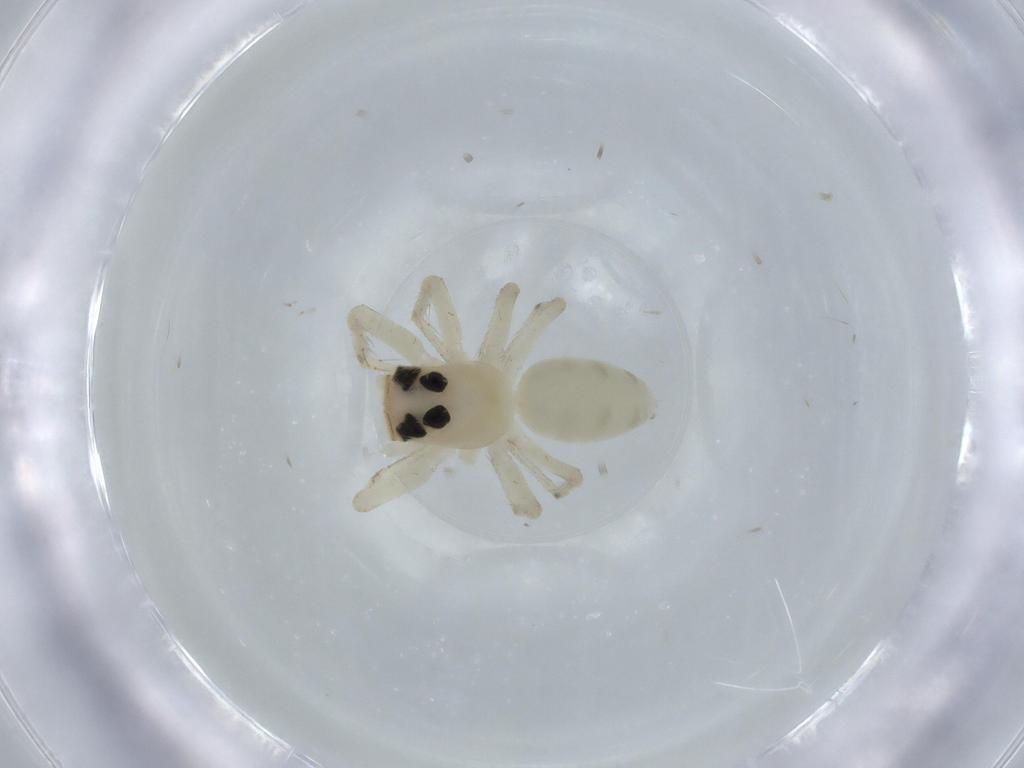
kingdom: Animalia
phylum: Arthropoda
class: Arachnida
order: Araneae
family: Salticidae
